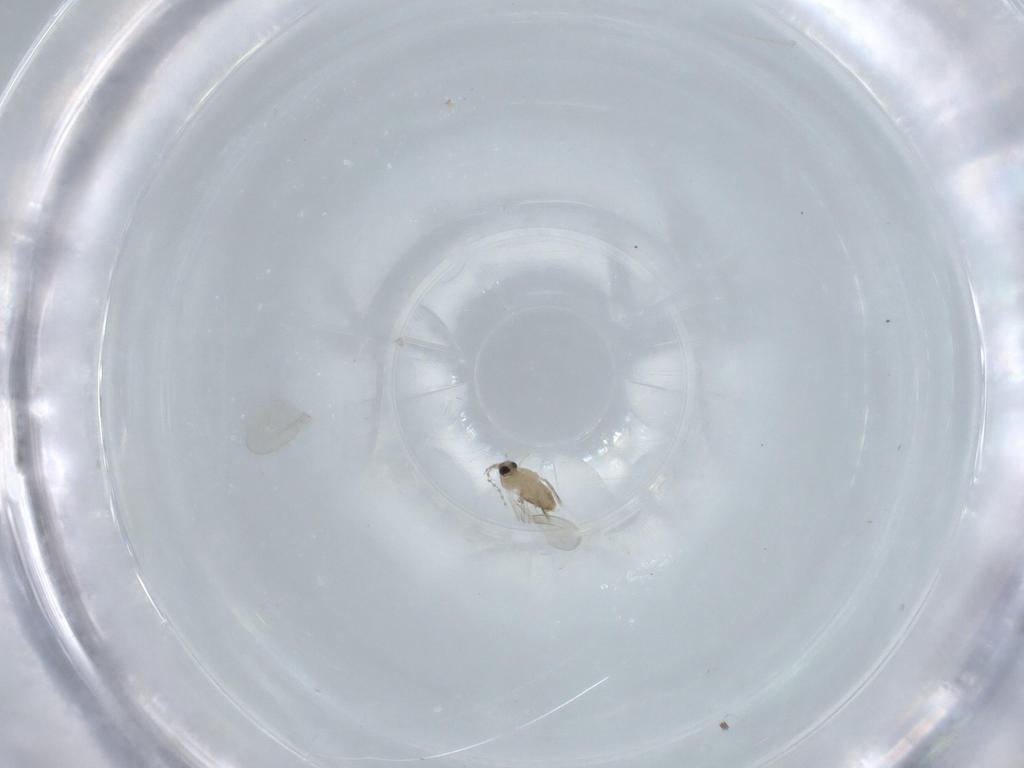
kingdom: Animalia
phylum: Arthropoda
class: Insecta
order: Diptera
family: Cecidomyiidae
